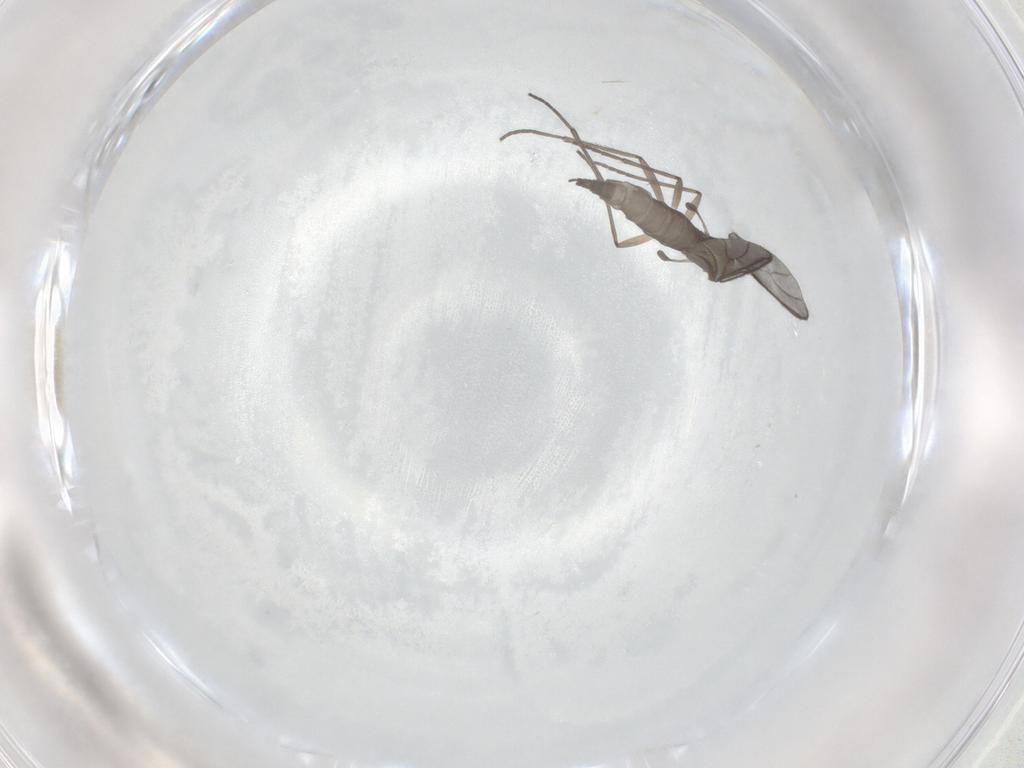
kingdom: Animalia
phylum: Arthropoda
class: Insecta
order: Diptera
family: Sciaridae
